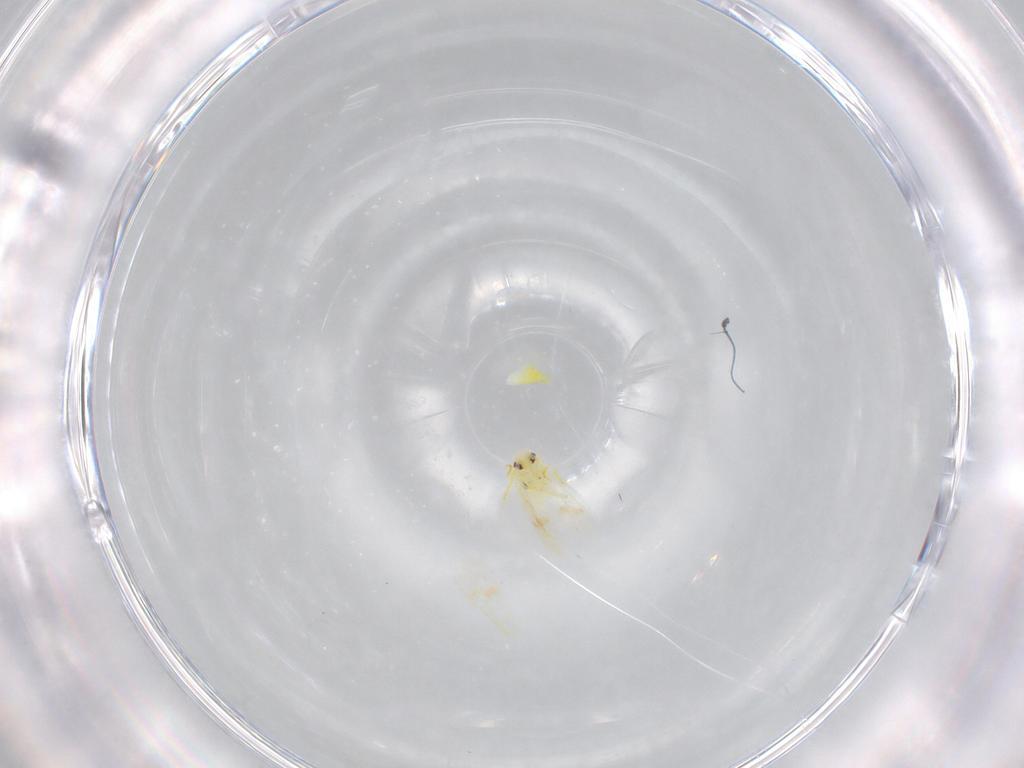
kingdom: Animalia
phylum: Arthropoda
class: Insecta
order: Hemiptera
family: Aleyrodidae
